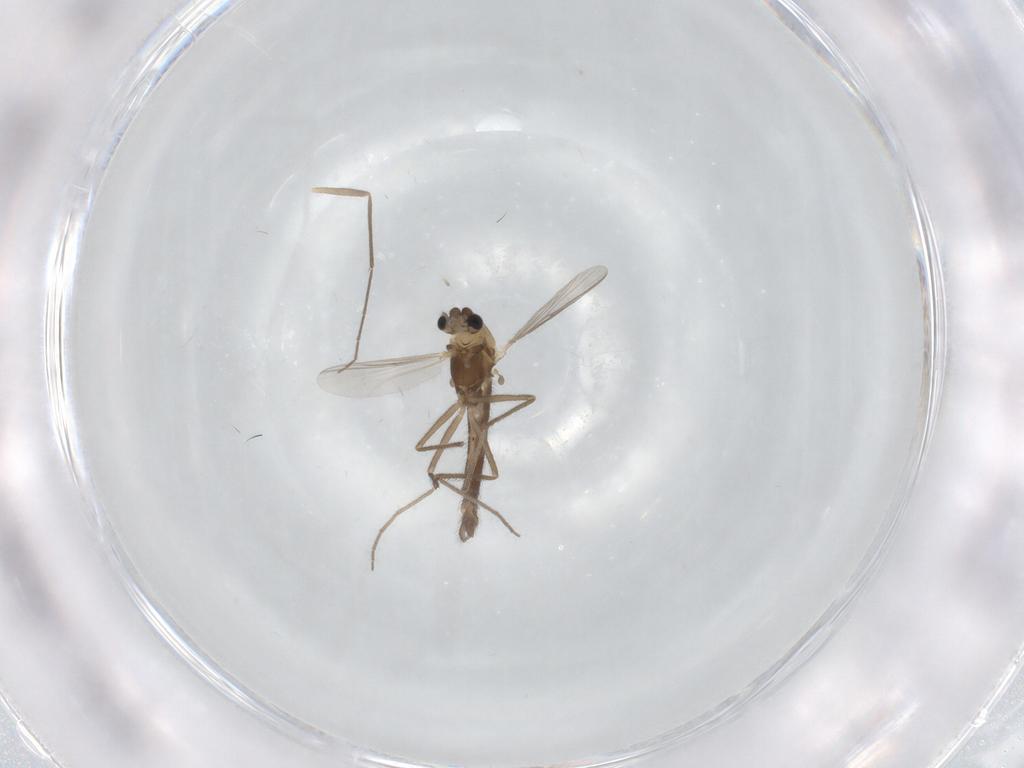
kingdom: Animalia
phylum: Arthropoda
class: Insecta
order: Diptera
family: Chironomidae
